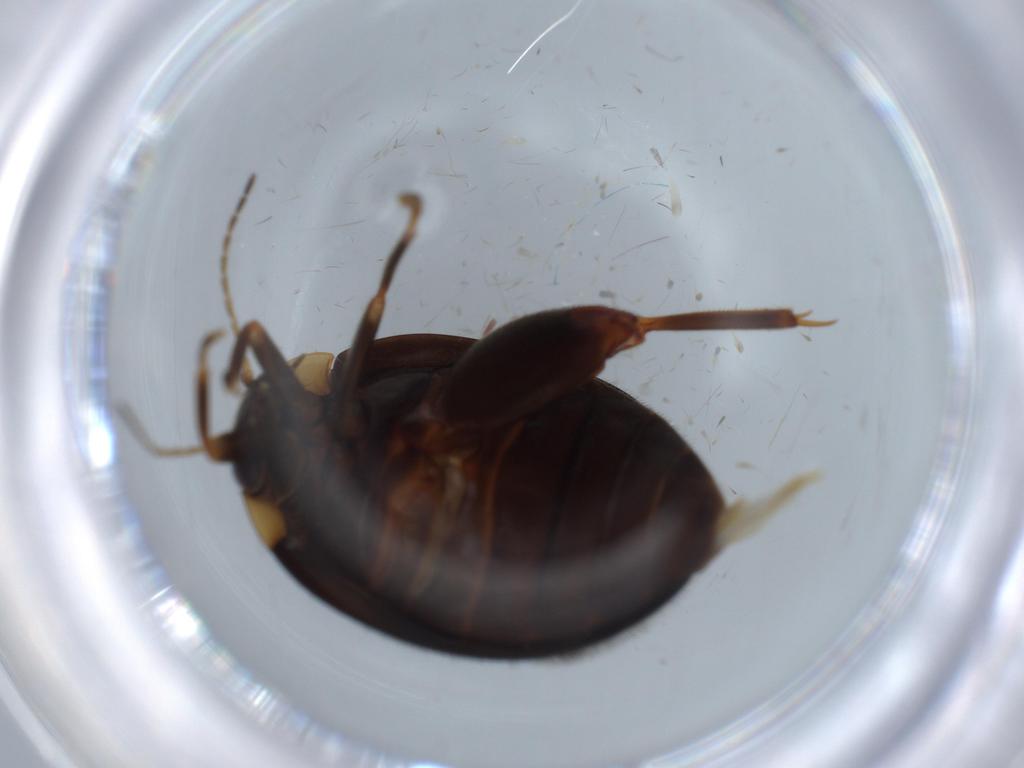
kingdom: Animalia
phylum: Arthropoda
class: Insecta
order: Coleoptera
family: Scirtidae
